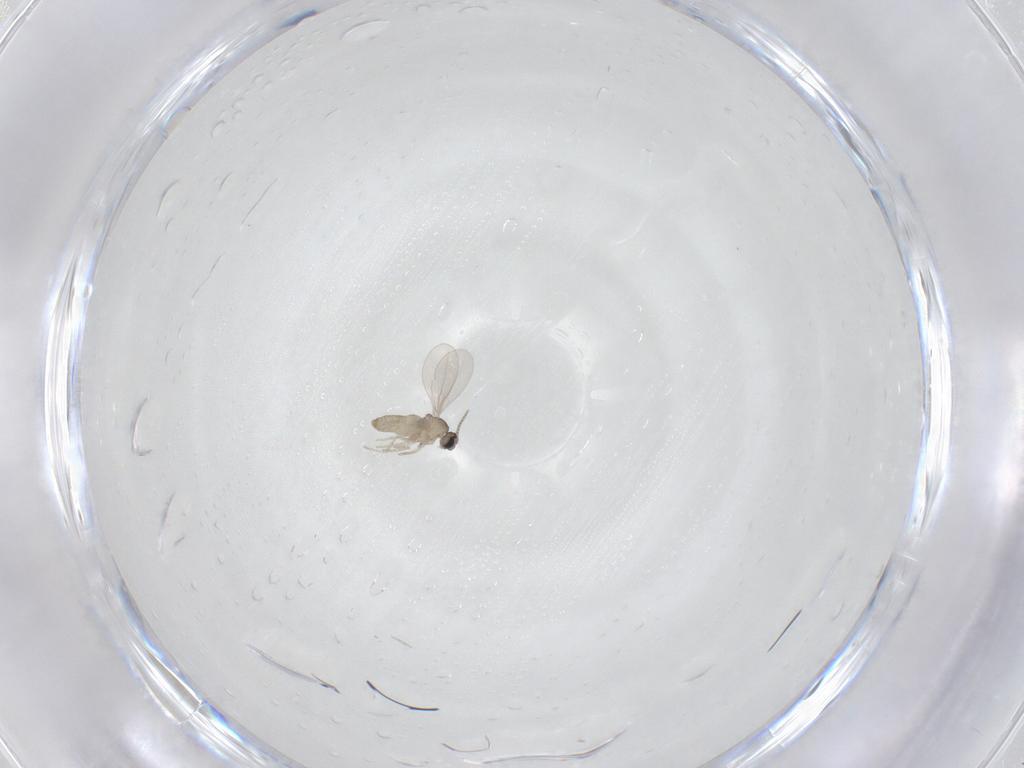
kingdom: Animalia
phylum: Arthropoda
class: Insecta
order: Diptera
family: Cecidomyiidae
